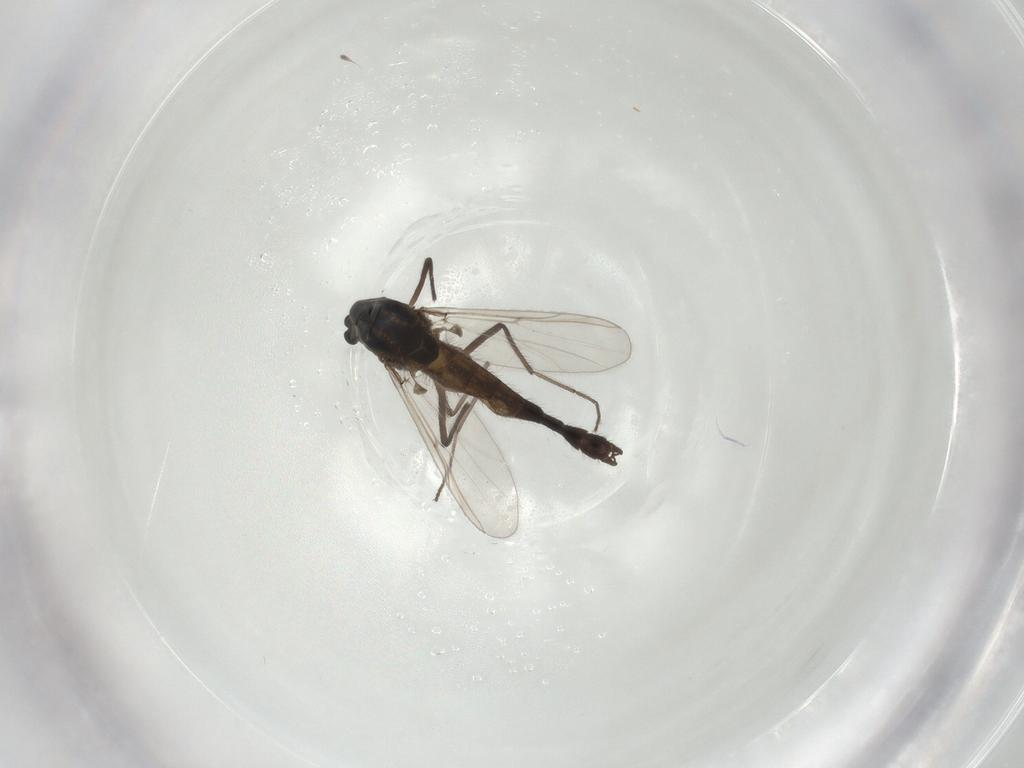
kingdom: Animalia
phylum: Arthropoda
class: Insecta
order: Diptera
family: Chironomidae
